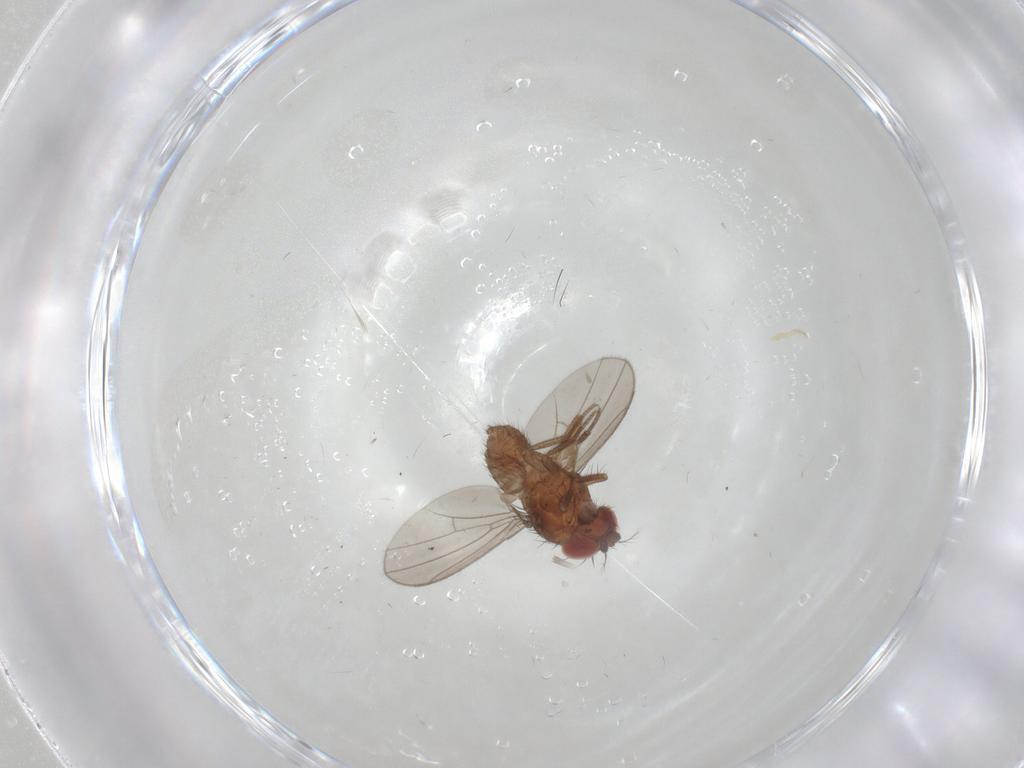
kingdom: Animalia
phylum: Arthropoda
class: Insecta
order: Diptera
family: Drosophilidae
